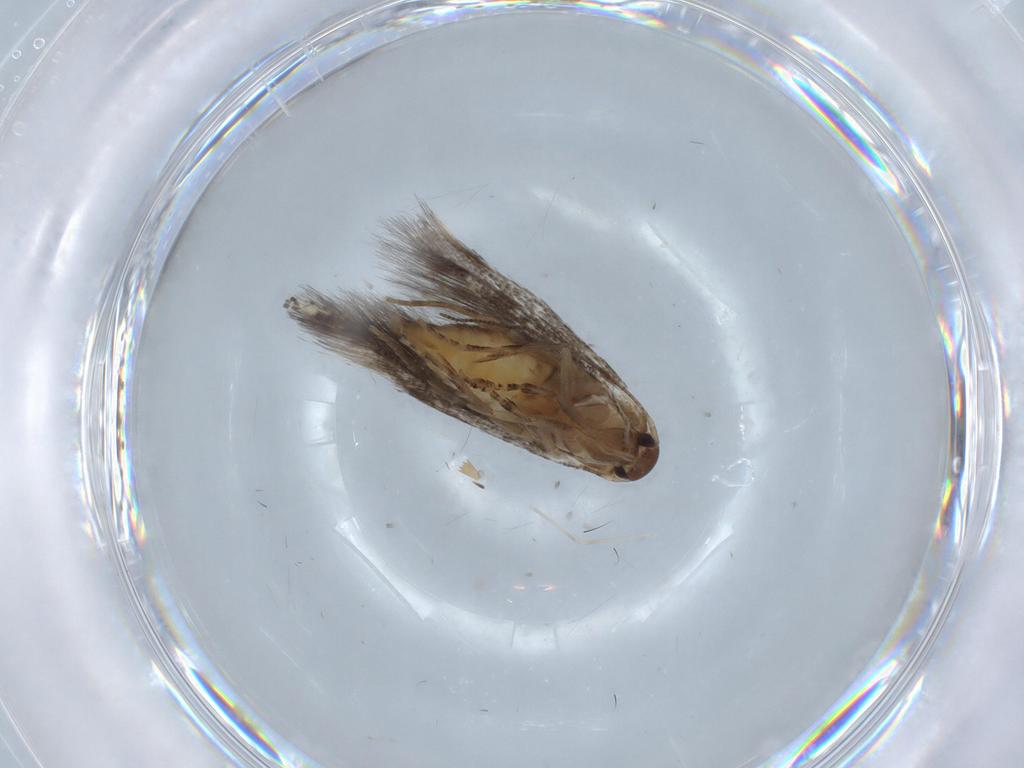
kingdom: Animalia
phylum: Arthropoda
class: Insecta
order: Lepidoptera
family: Elachistidae
